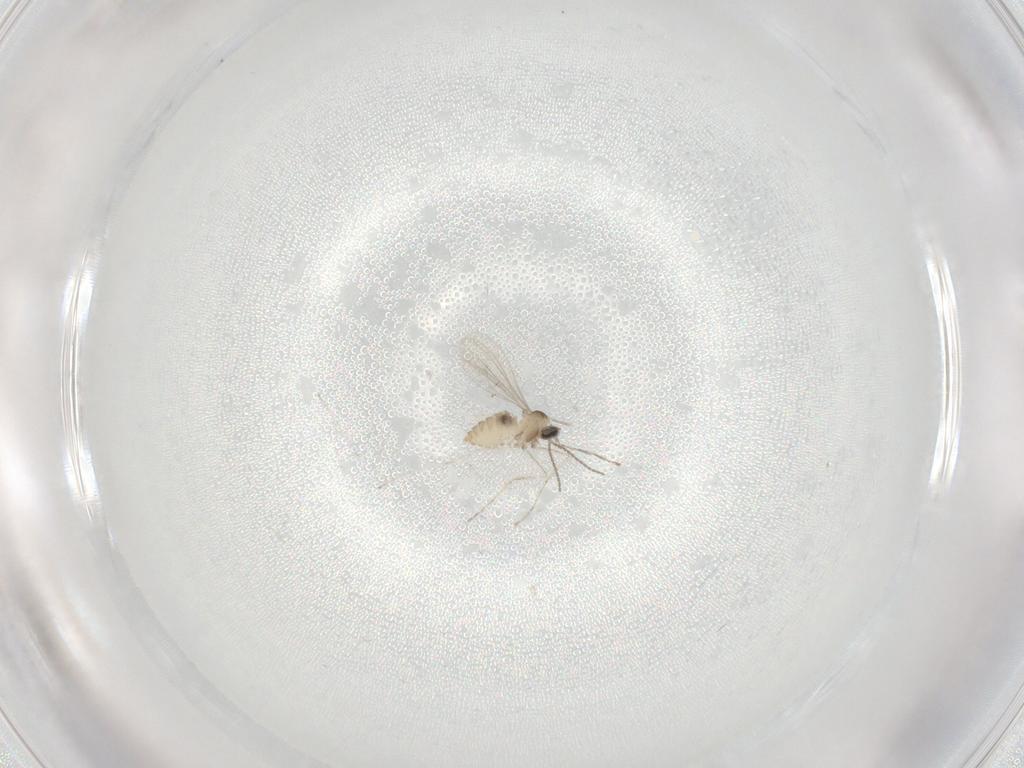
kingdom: Animalia
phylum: Arthropoda
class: Insecta
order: Diptera
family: Cecidomyiidae
